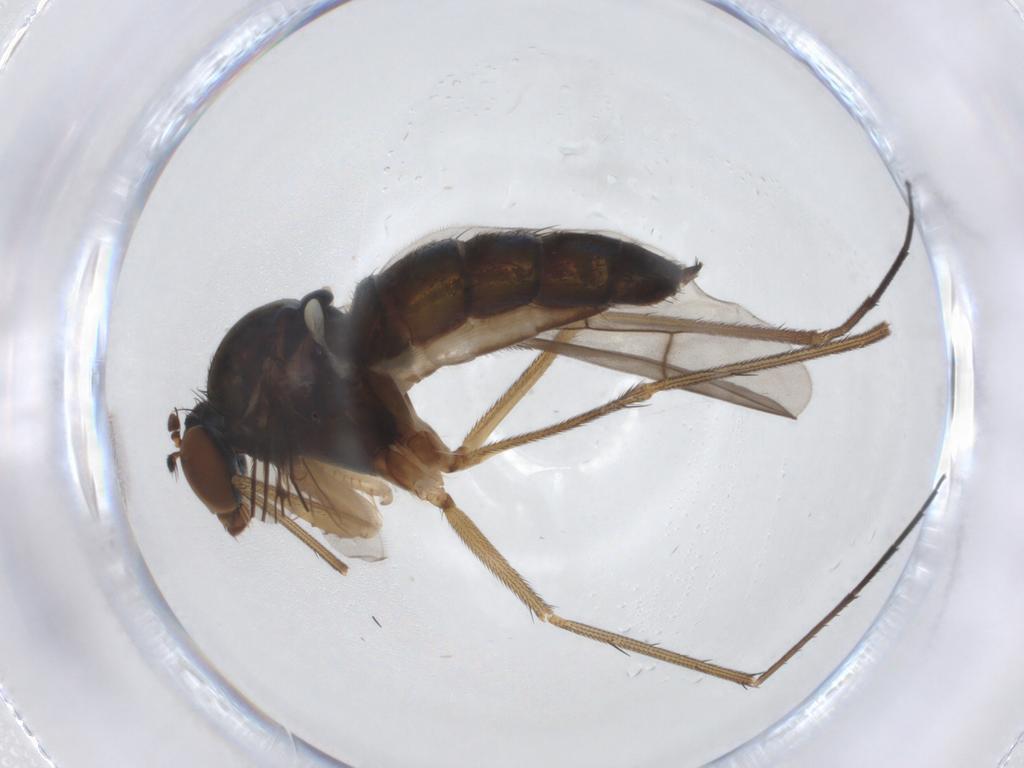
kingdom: Animalia
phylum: Arthropoda
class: Insecta
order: Diptera
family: Dolichopodidae
